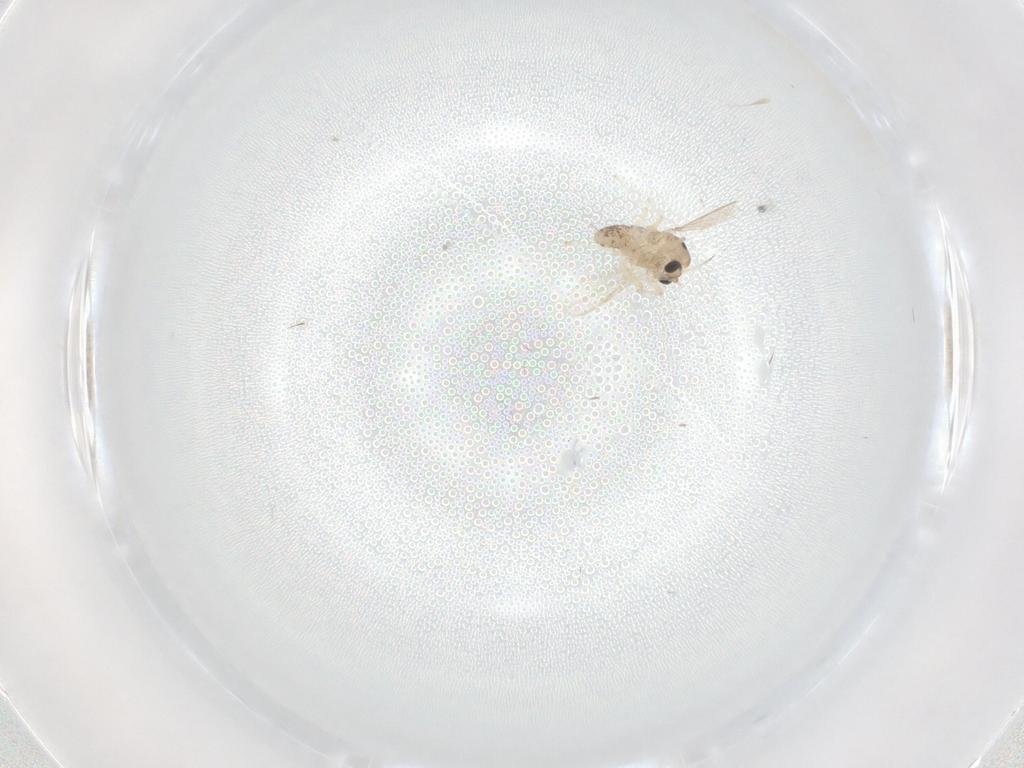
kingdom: Animalia
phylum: Arthropoda
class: Insecta
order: Diptera
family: Chironomidae
